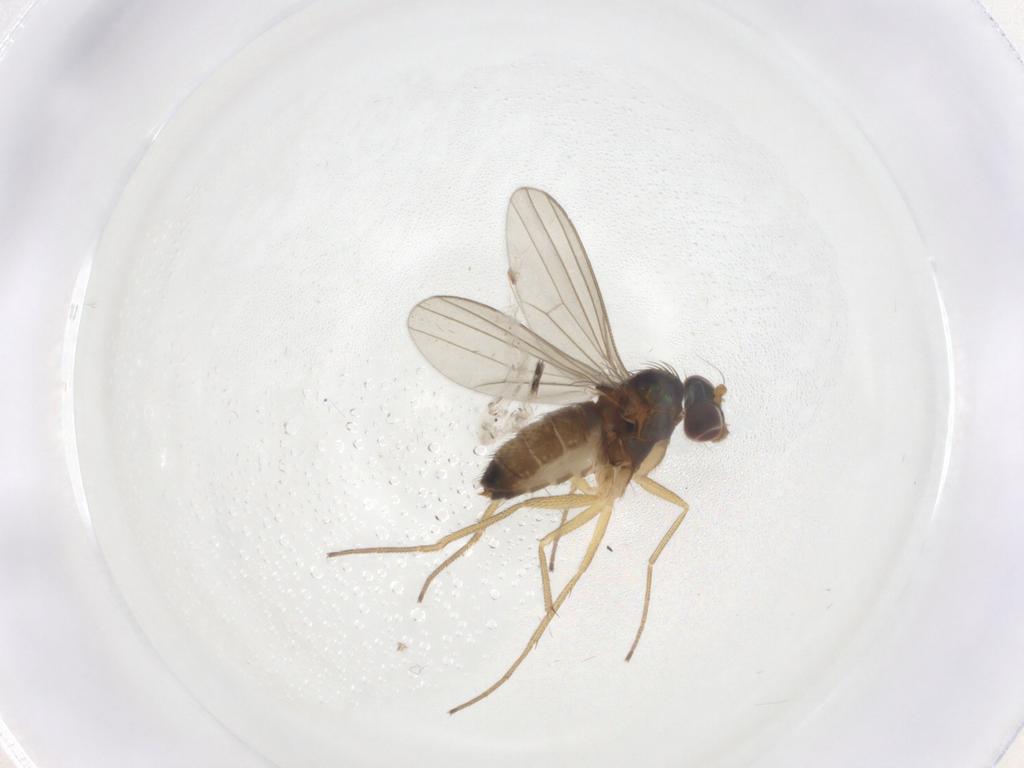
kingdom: Animalia
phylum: Arthropoda
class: Insecta
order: Diptera
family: Dolichopodidae
